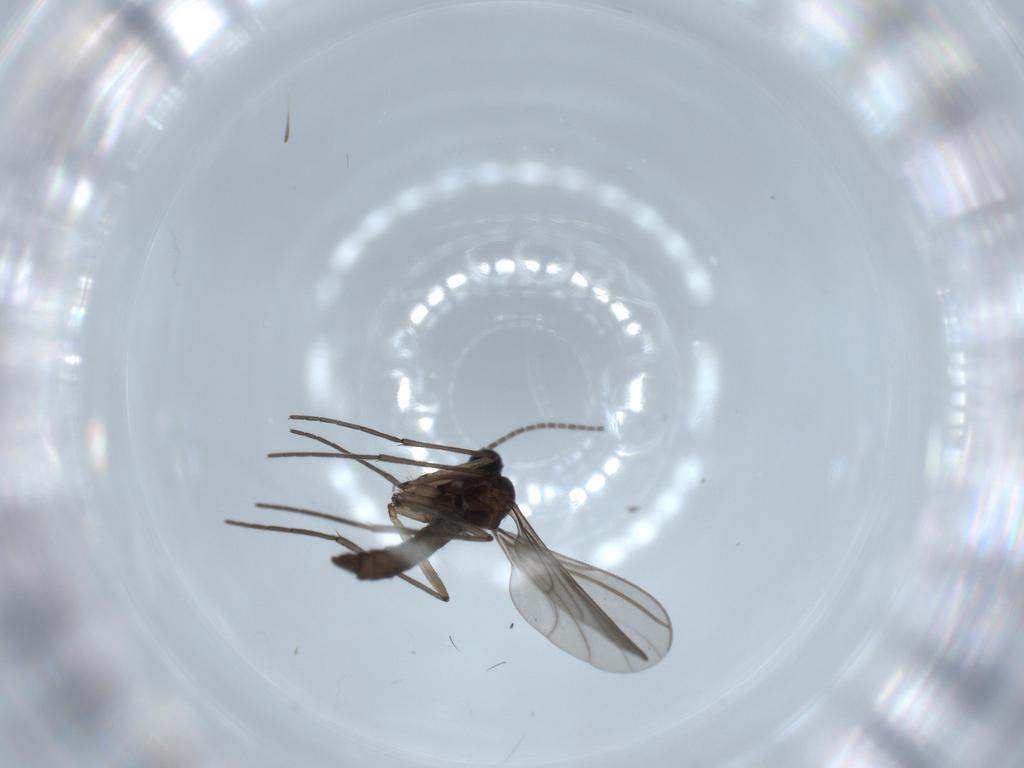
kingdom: Animalia
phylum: Arthropoda
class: Insecta
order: Diptera
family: Sciaridae
